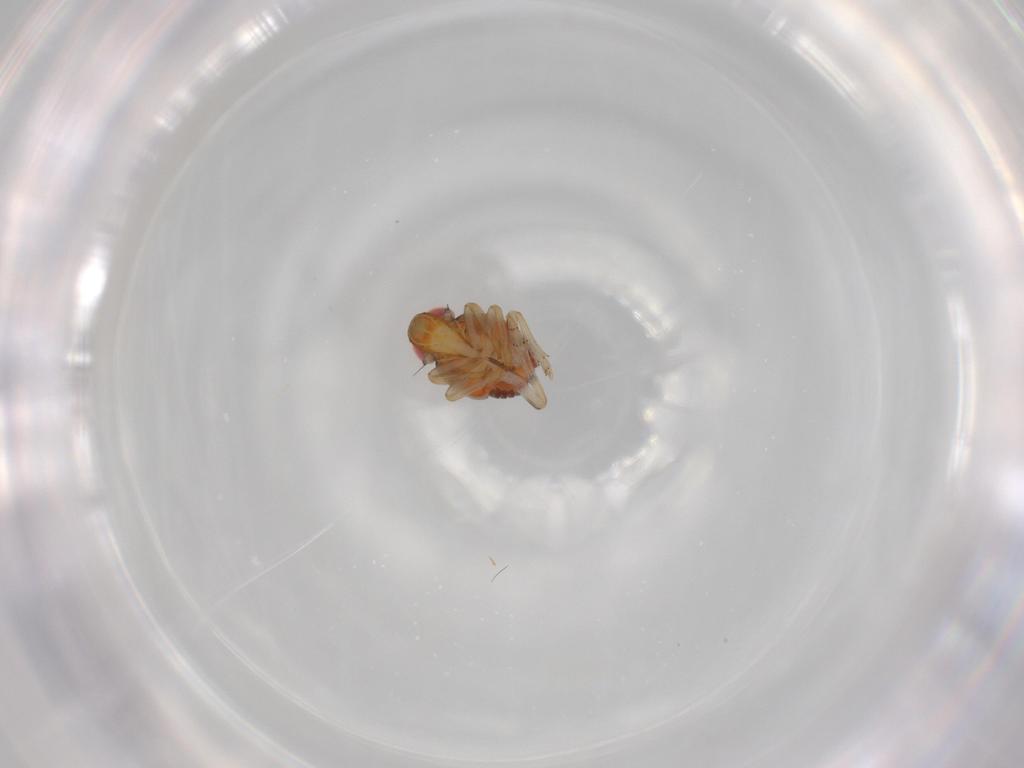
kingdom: Animalia
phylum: Arthropoda
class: Insecta
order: Hemiptera
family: Issidae
